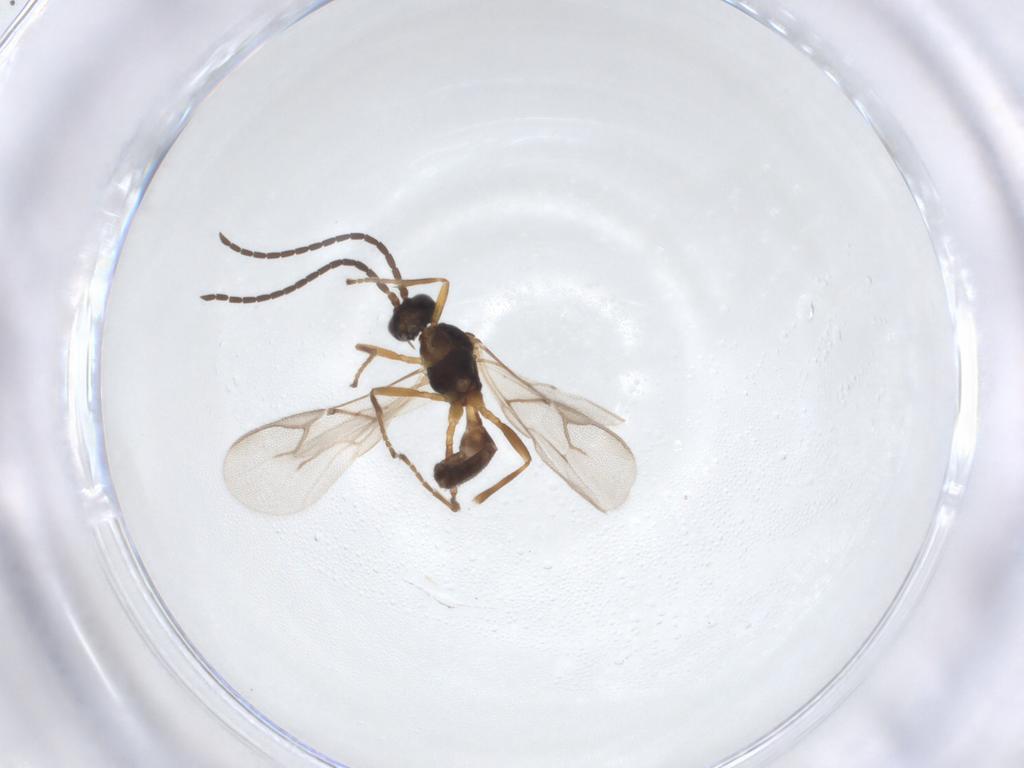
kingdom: Animalia
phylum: Arthropoda
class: Insecta
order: Hymenoptera
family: Braconidae
